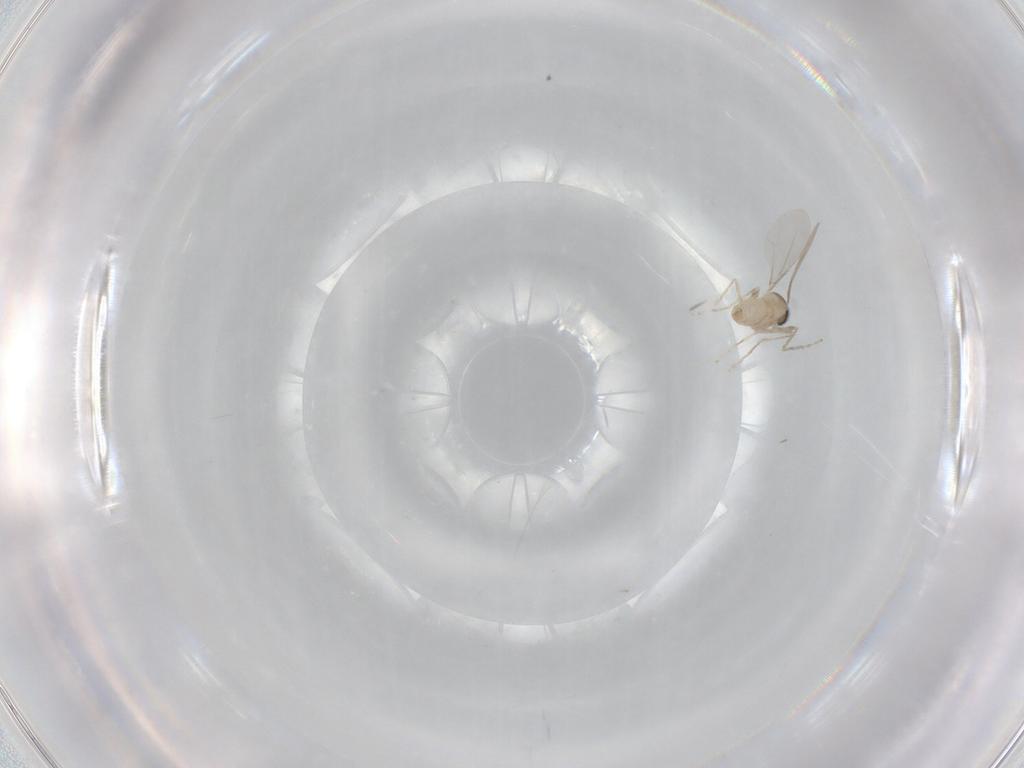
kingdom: Animalia
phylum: Arthropoda
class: Insecta
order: Diptera
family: Cecidomyiidae
